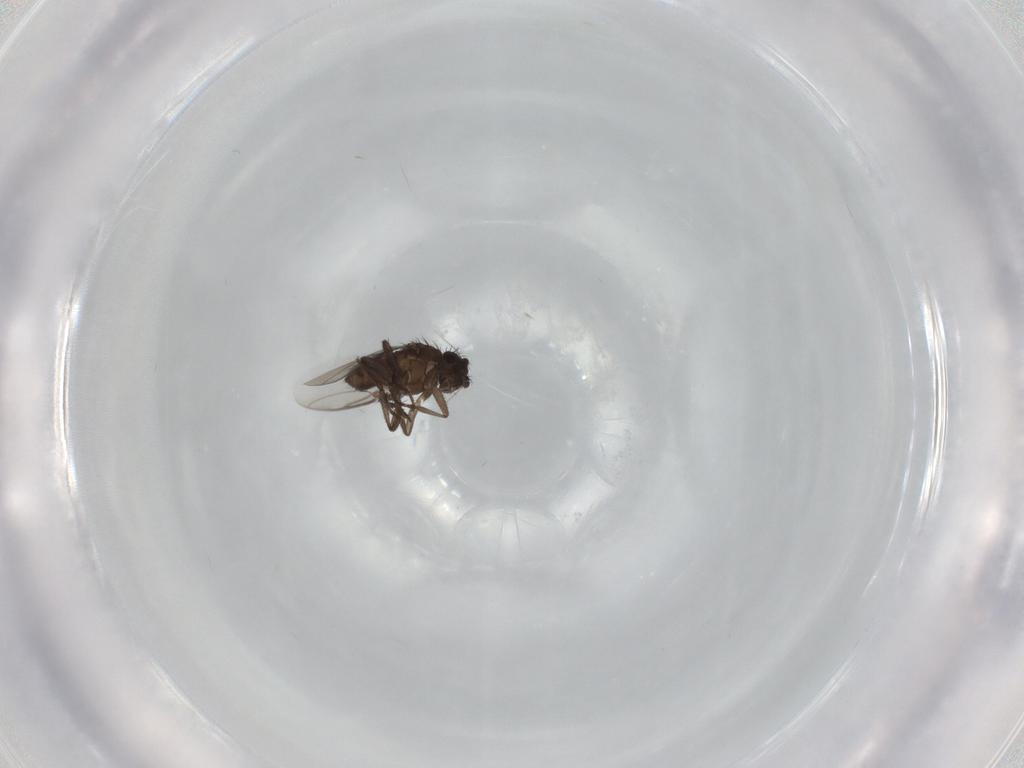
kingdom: Animalia
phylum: Arthropoda
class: Insecta
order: Diptera
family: Sphaeroceridae
